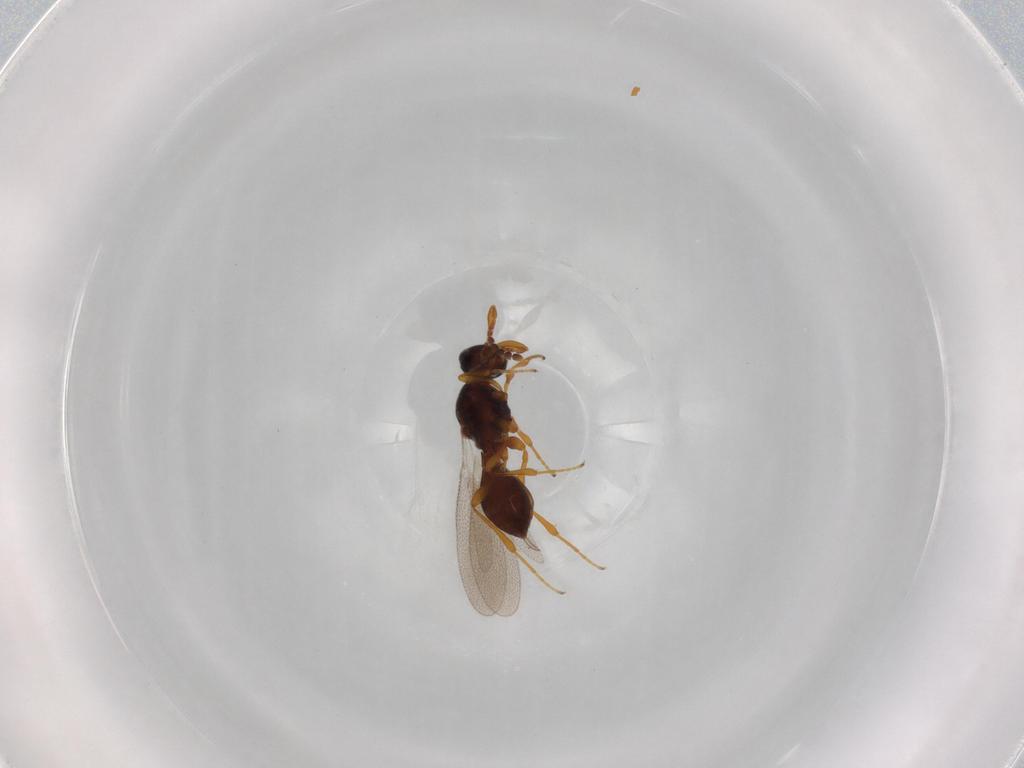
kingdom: Animalia
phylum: Arthropoda
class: Insecta
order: Diptera
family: Mythicomyiidae
